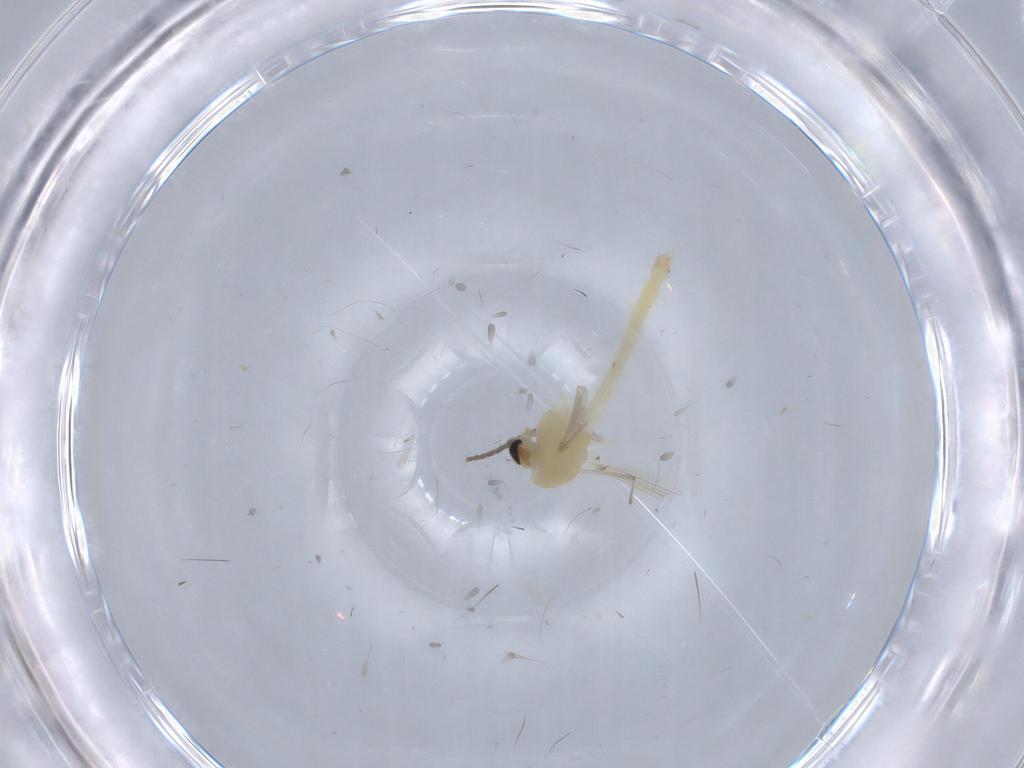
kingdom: Animalia
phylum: Arthropoda
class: Insecta
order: Diptera
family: Chironomidae
